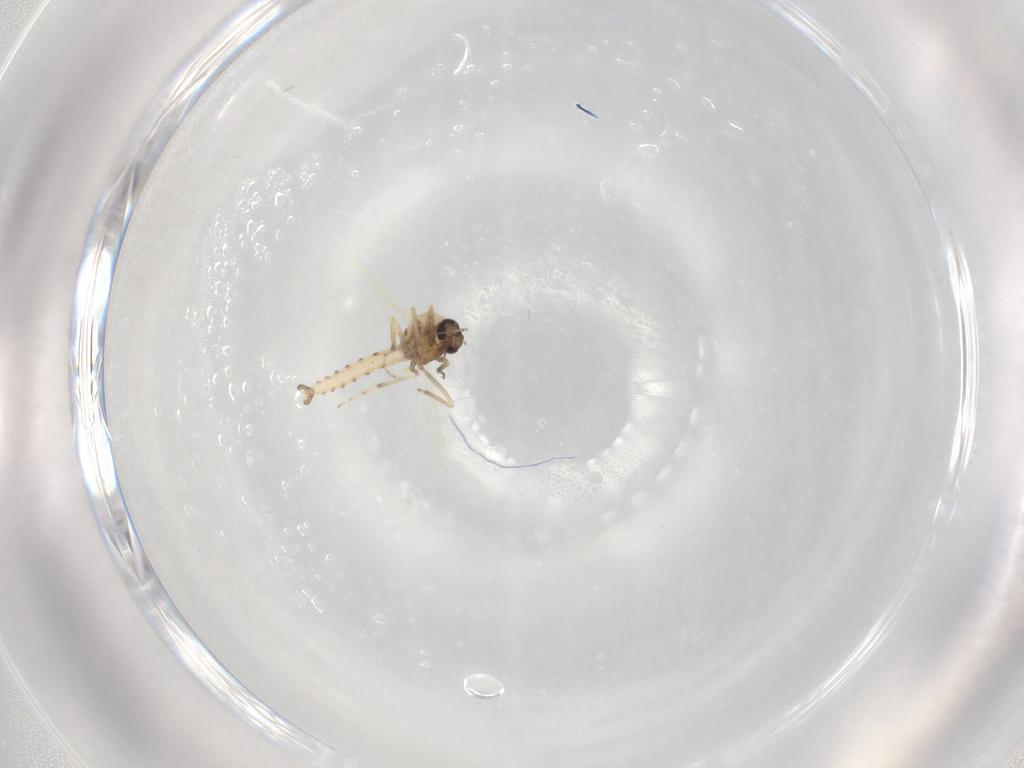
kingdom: Animalia
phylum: Arthropoda
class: Insecta
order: Diptera
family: Ceratopogonidae
